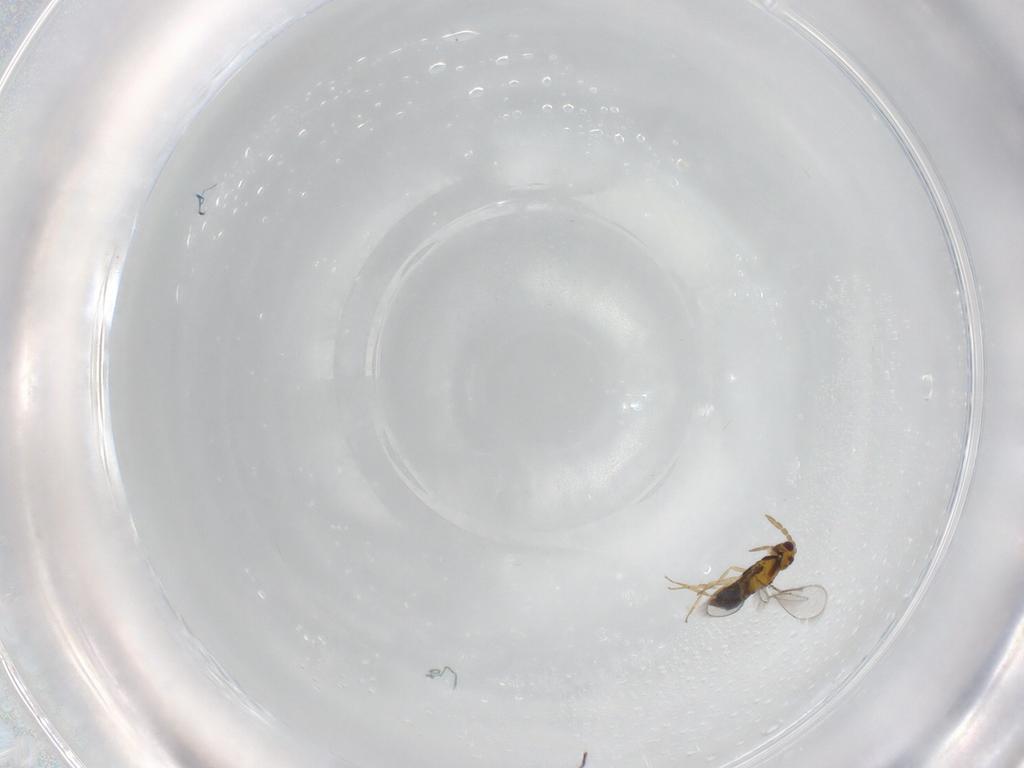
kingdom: Animalia
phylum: Arthropoda
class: Insecta
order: Hymenoptera
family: Aphelinidae
